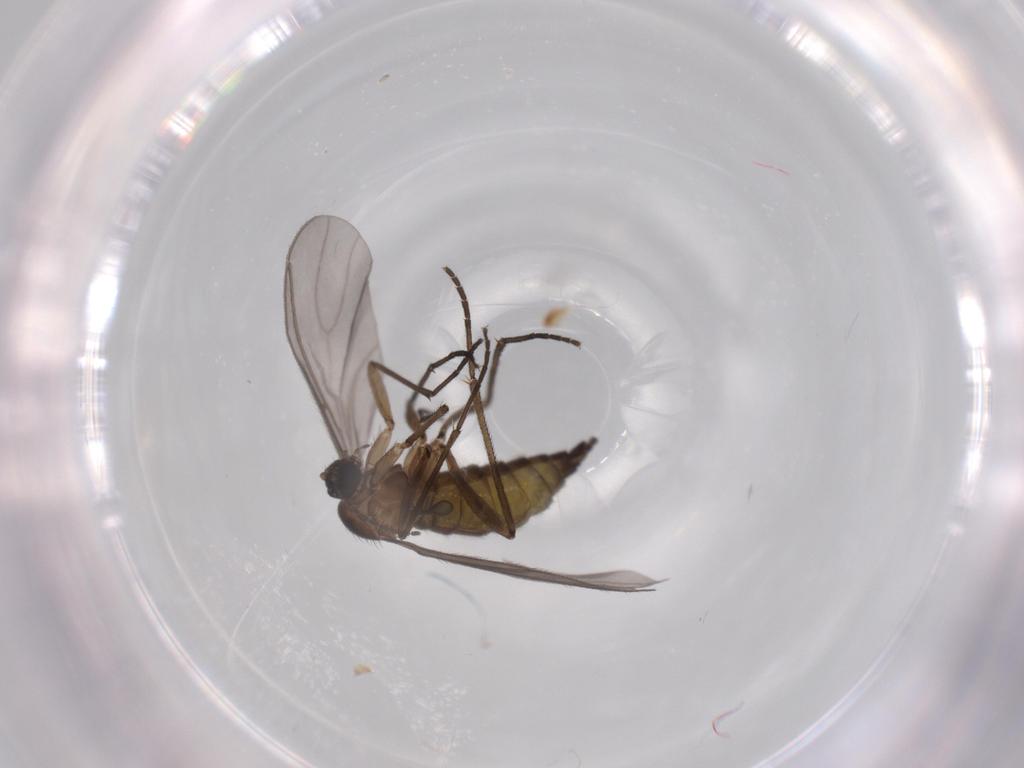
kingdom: Animalia
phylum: Arthropoda
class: Insecta
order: Diptera
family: Sciaridae
